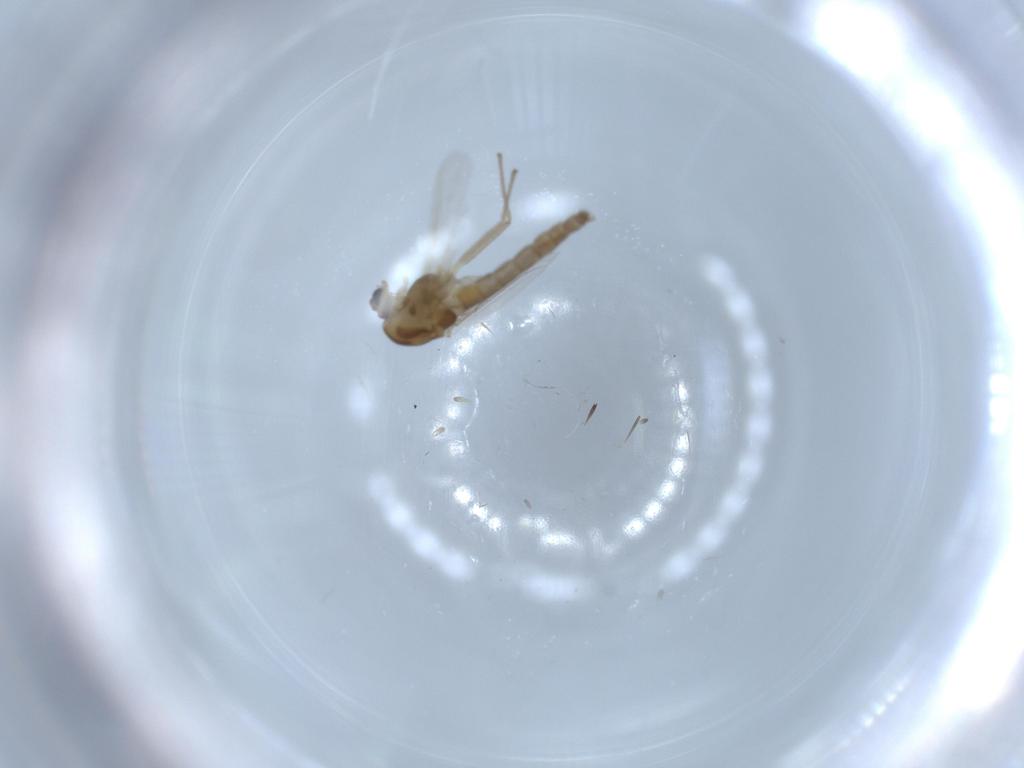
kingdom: Animalia
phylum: Arthropoda
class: Insecta
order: Diptera
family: Chironomidae
